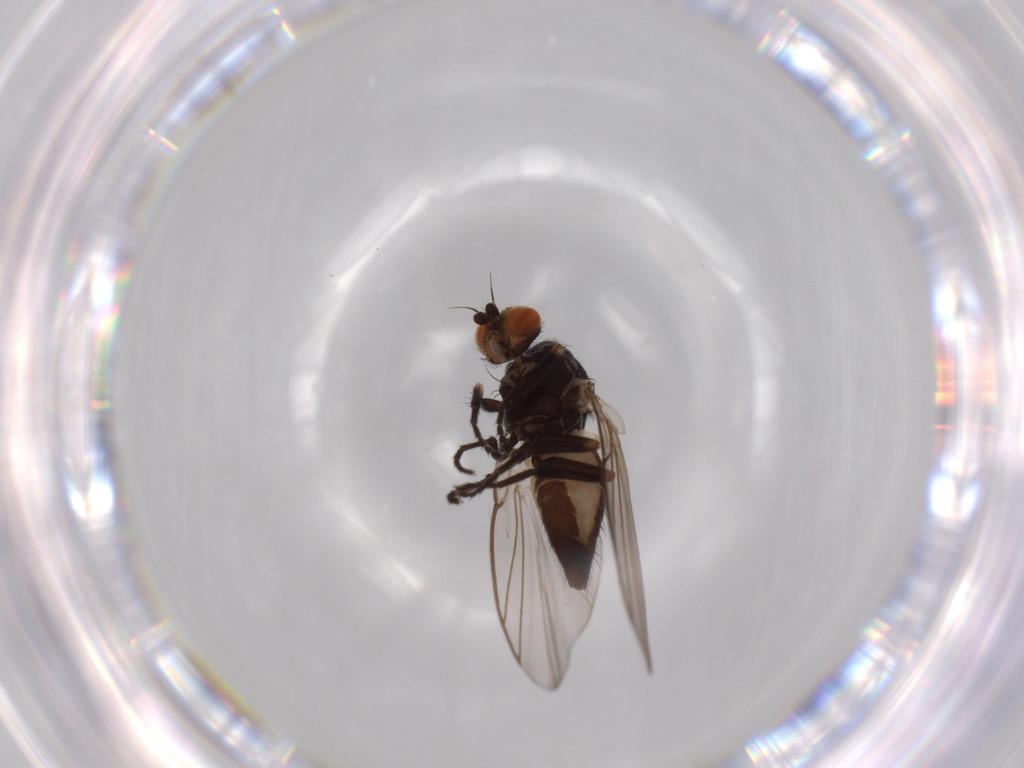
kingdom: Animalia
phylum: Arthropoda
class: Insecta
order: Diptera
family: Agromyzidae
